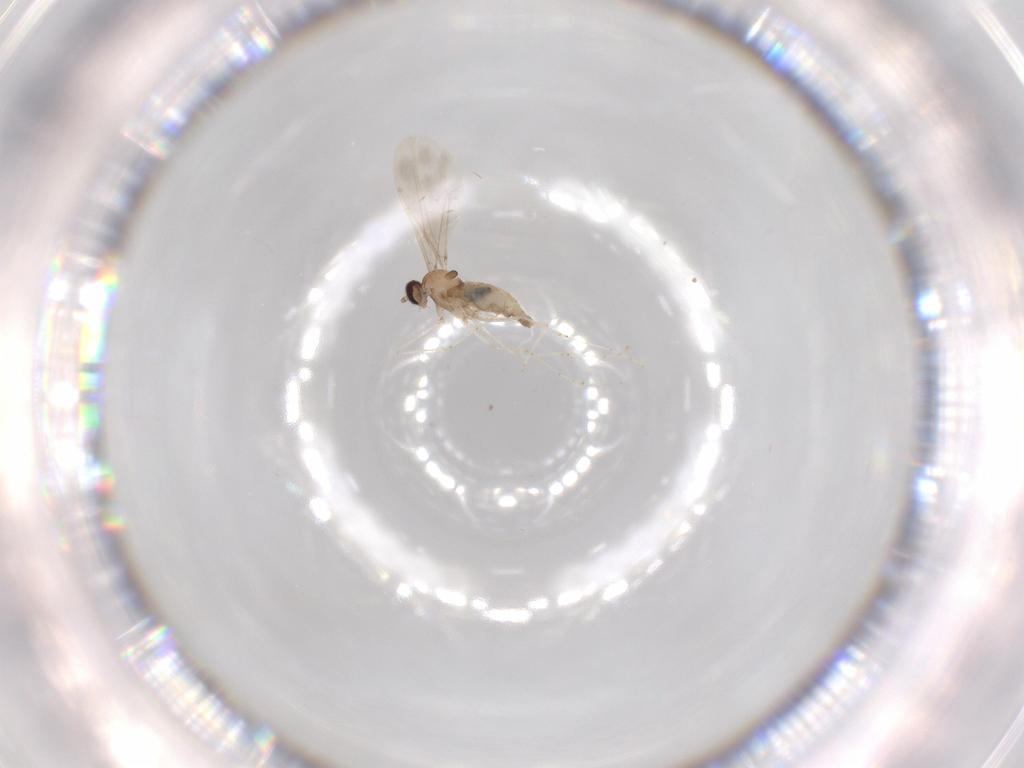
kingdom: Animalia
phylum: Arthropoda
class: Insecta
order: Diptera
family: Cecidomyiidae
